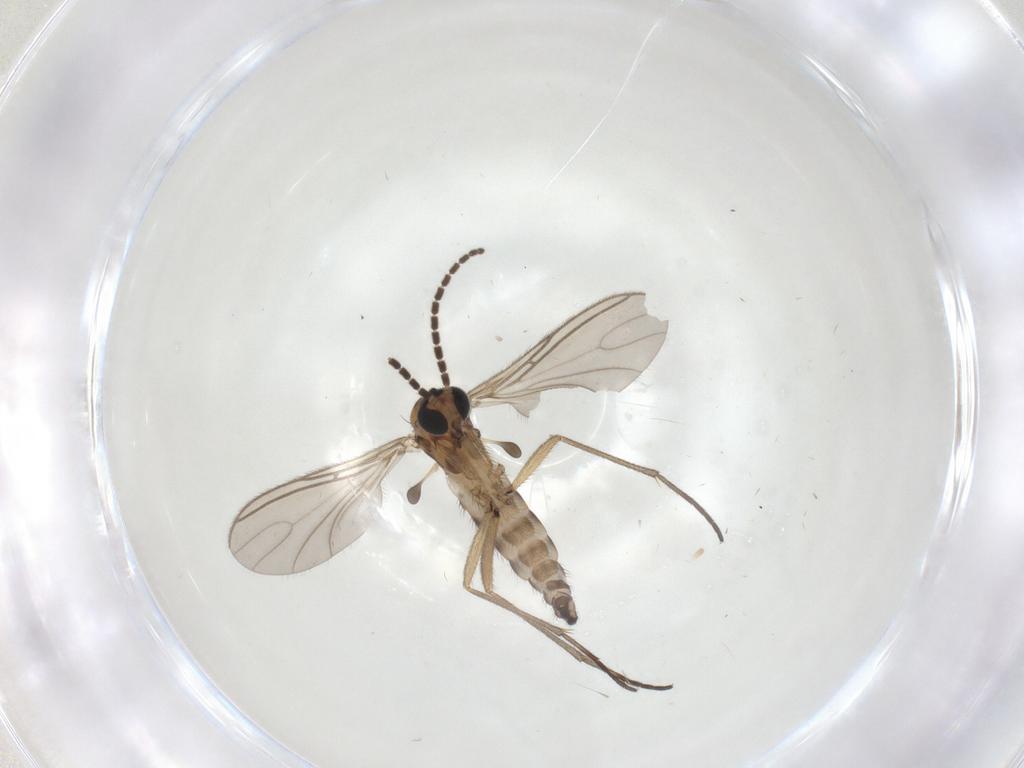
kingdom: Animalia
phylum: Arthropoda
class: Insecta
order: Diptera
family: Sciaridae
